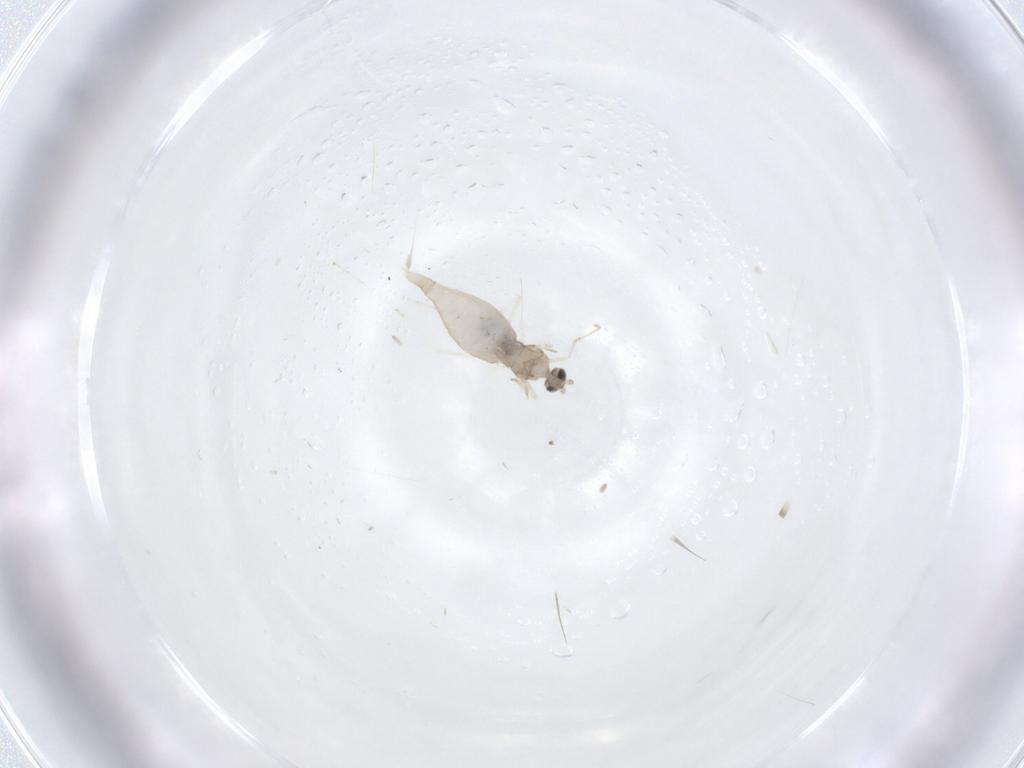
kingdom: Animalia
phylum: Arthropoda
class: Insecta
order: Diptera
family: Cecidomyiidae
